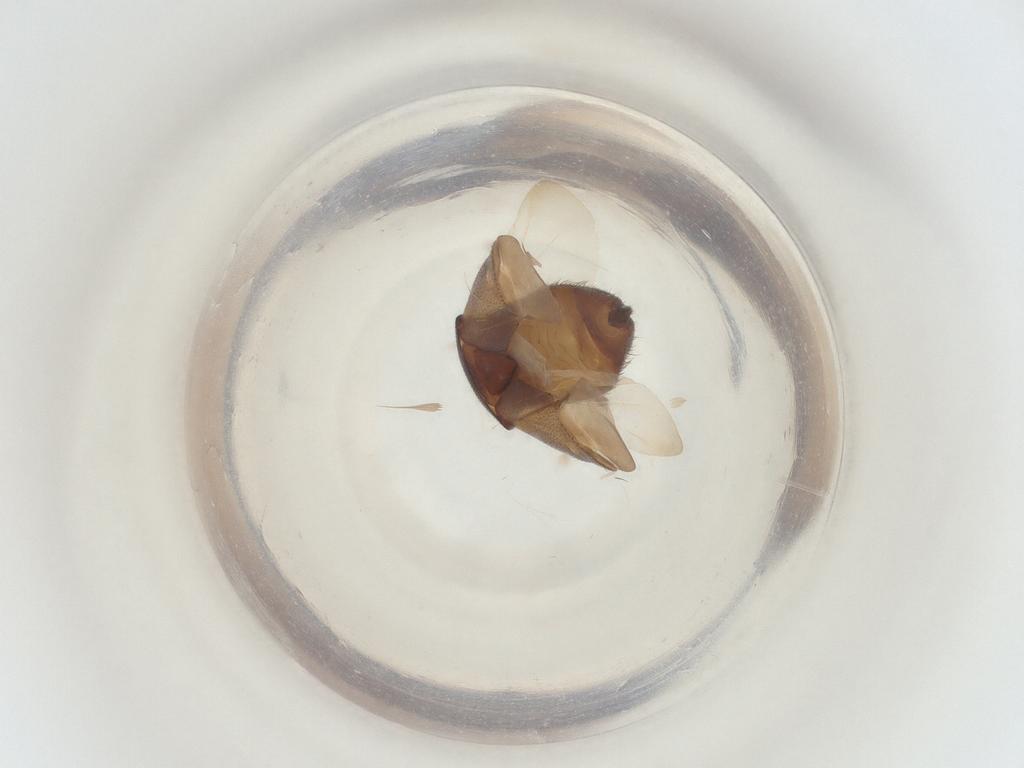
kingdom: Animalia
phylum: Arthropoda
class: Insecta
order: Hemiptera
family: Miridae
